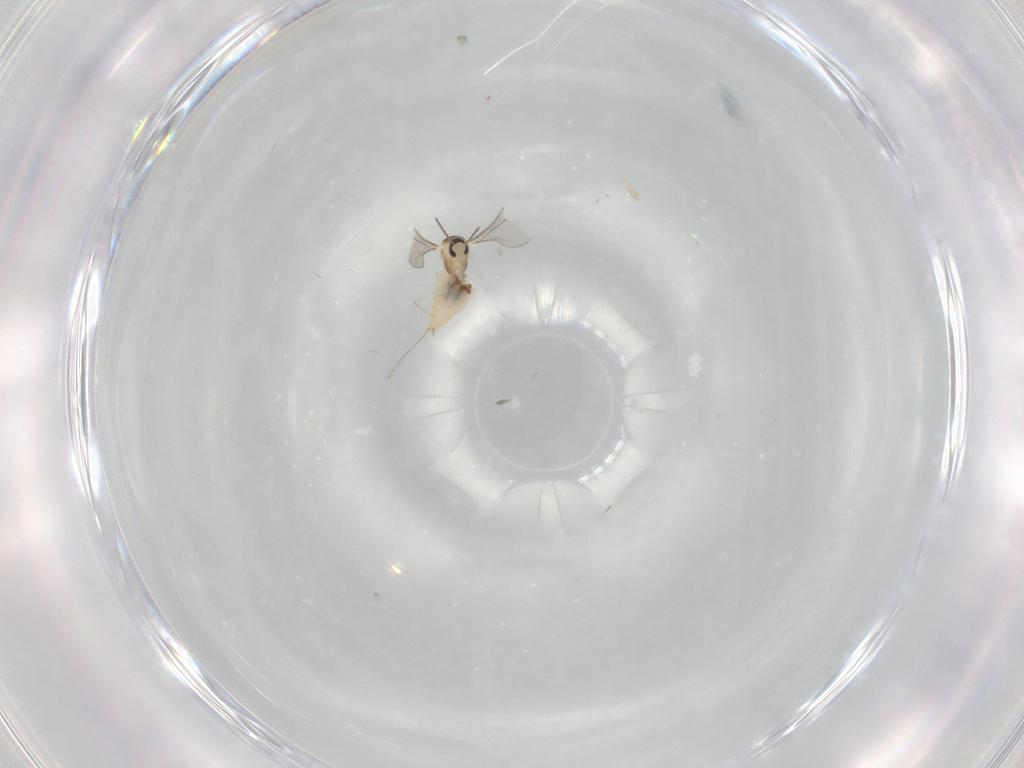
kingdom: Animalia
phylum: Arthropoda
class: Insecta
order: Diptera
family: Cecidomyiidae
